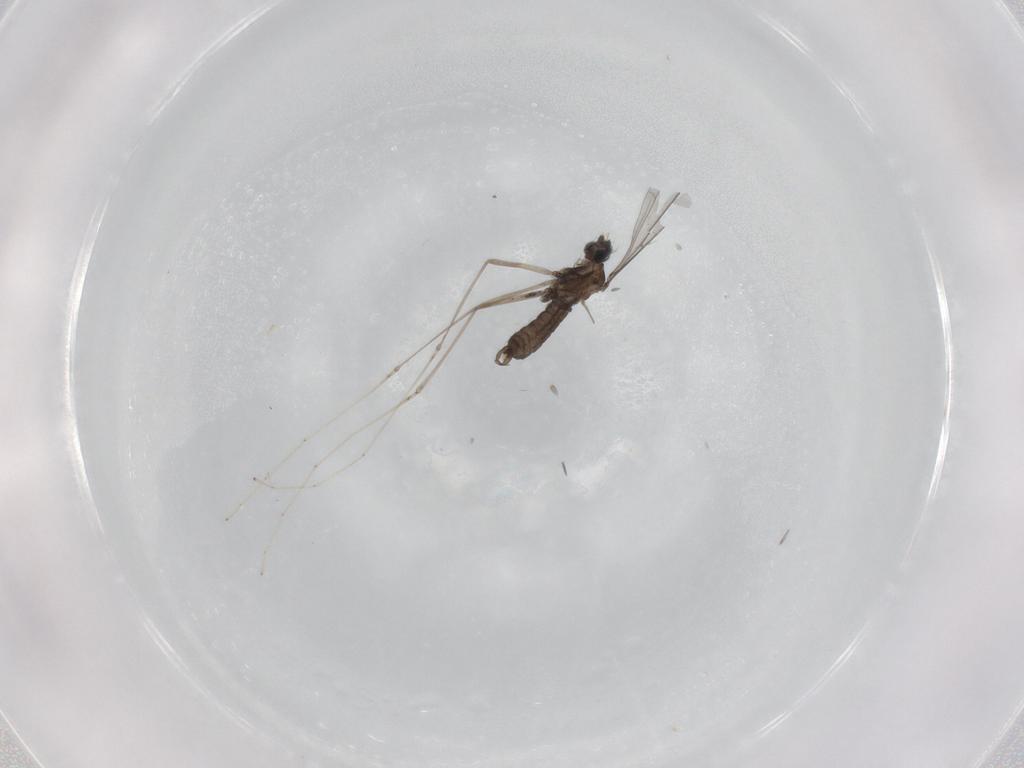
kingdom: Animalia
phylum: Arthropoda
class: Insecta
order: Diptera
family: Cecidomyiidae
